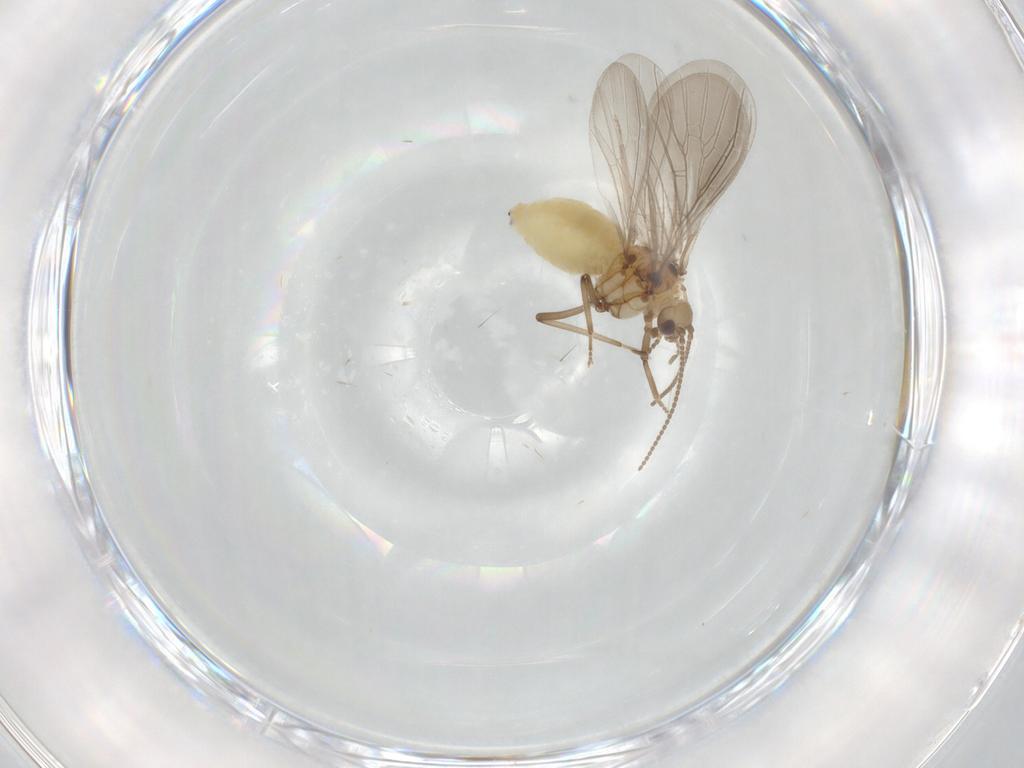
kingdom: Animalia
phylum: Arthropoda
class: Insecta
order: Neuroptera
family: Coniopterygidae
